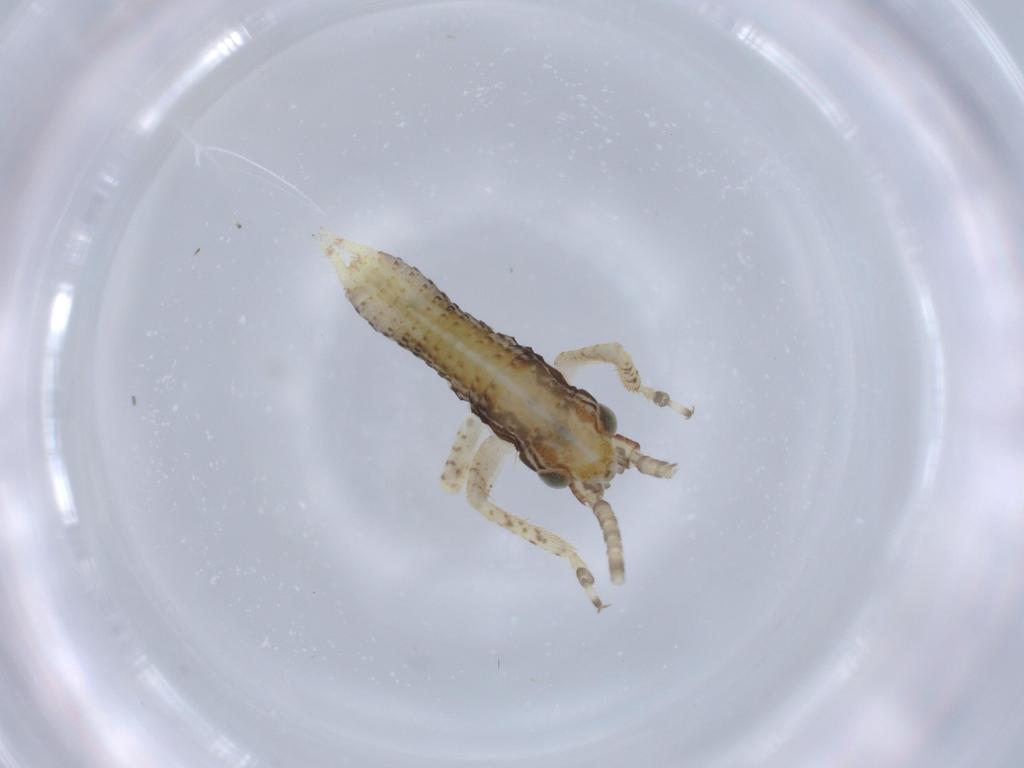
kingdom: Animalia
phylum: Arthropoda
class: Insecta
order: Orthoptera
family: Gryllidae
